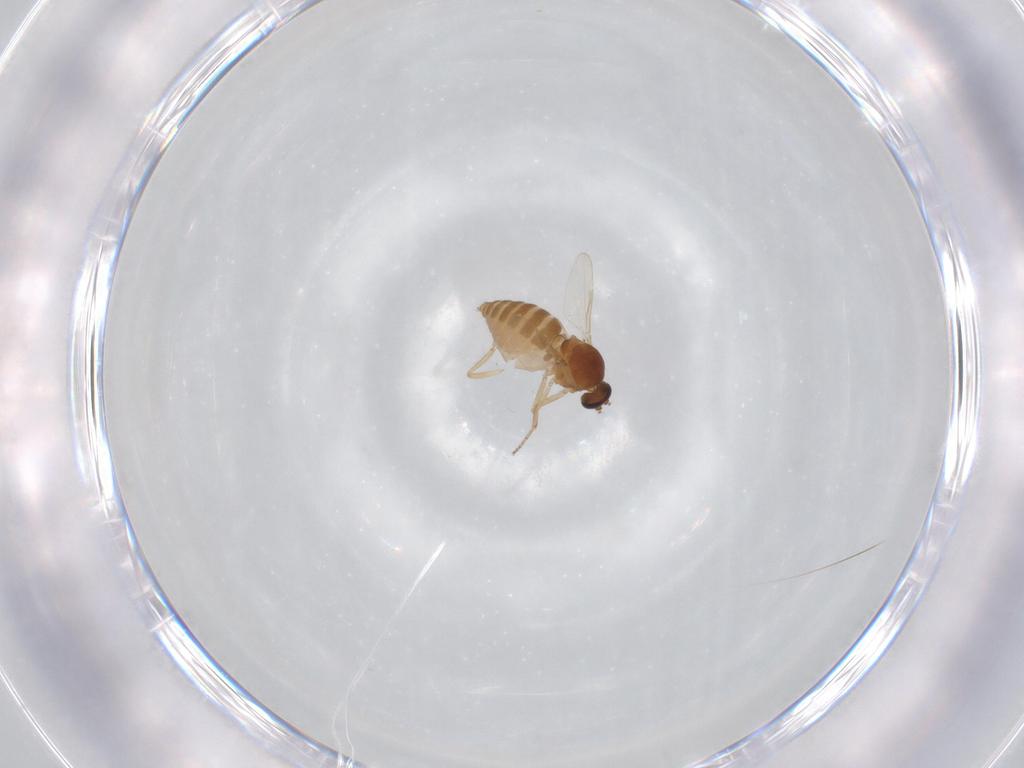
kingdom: Animalia
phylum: Arthropoda
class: Insecta
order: Diptera
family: Ceratopogonidae
